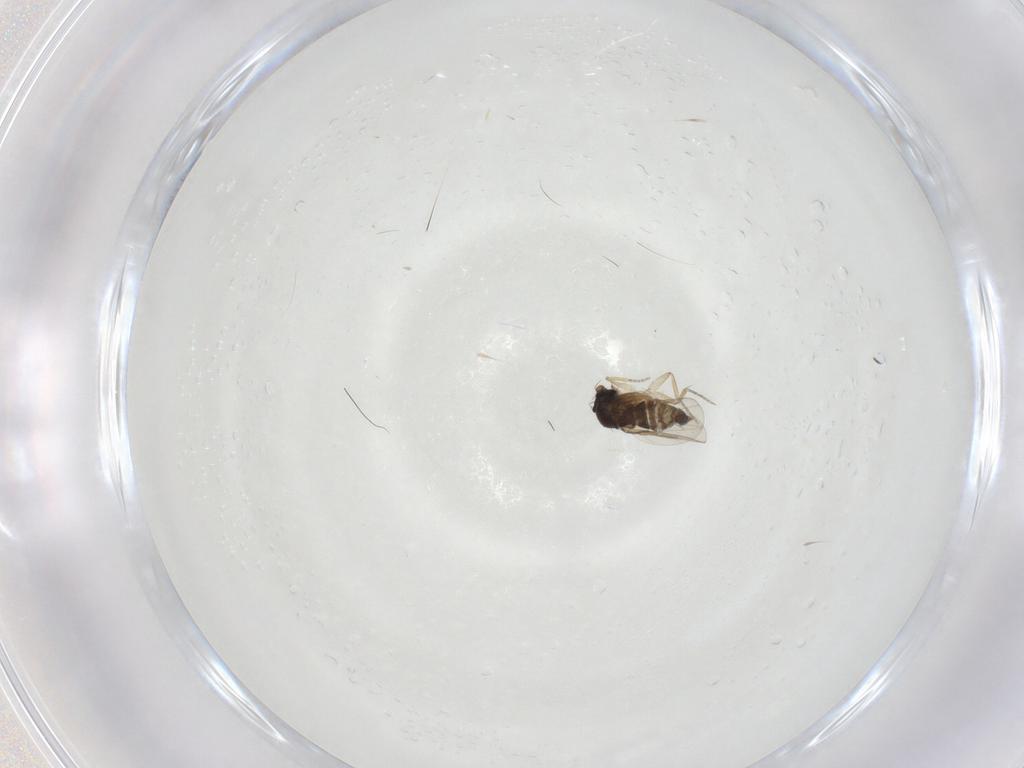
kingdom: Animalia
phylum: Arthropoda
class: Insecta
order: Diptera
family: Phoridae
